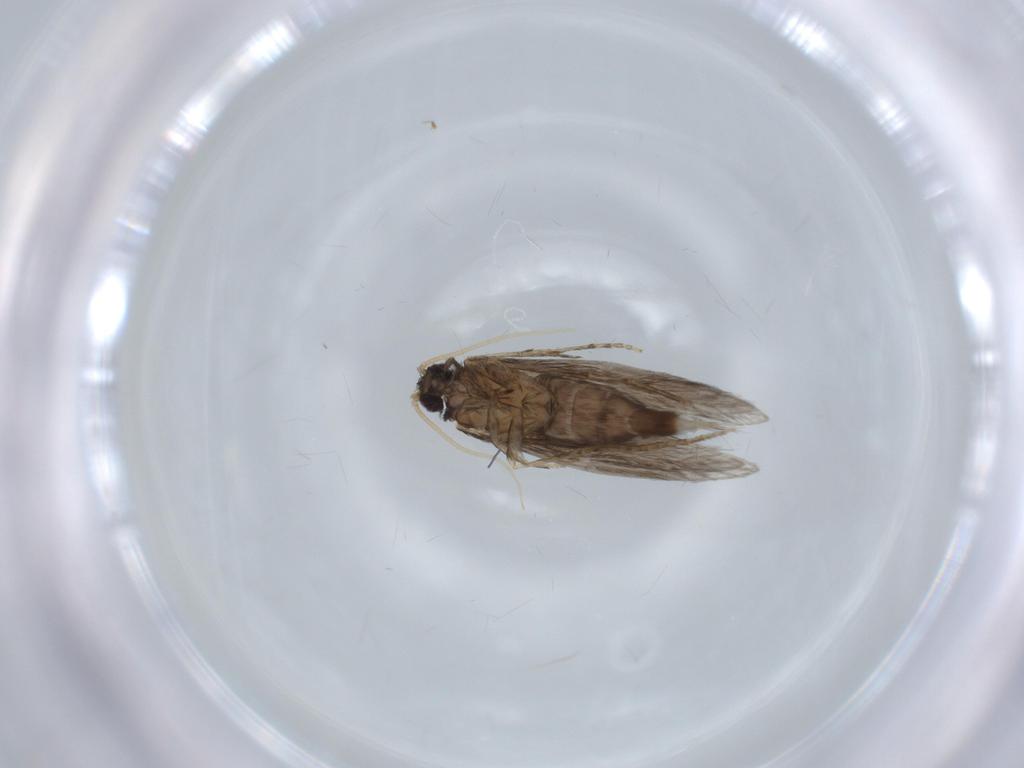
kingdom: Animalia
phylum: Arthropoda
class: Insecta
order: Trichoptera
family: Hydroptilidae
